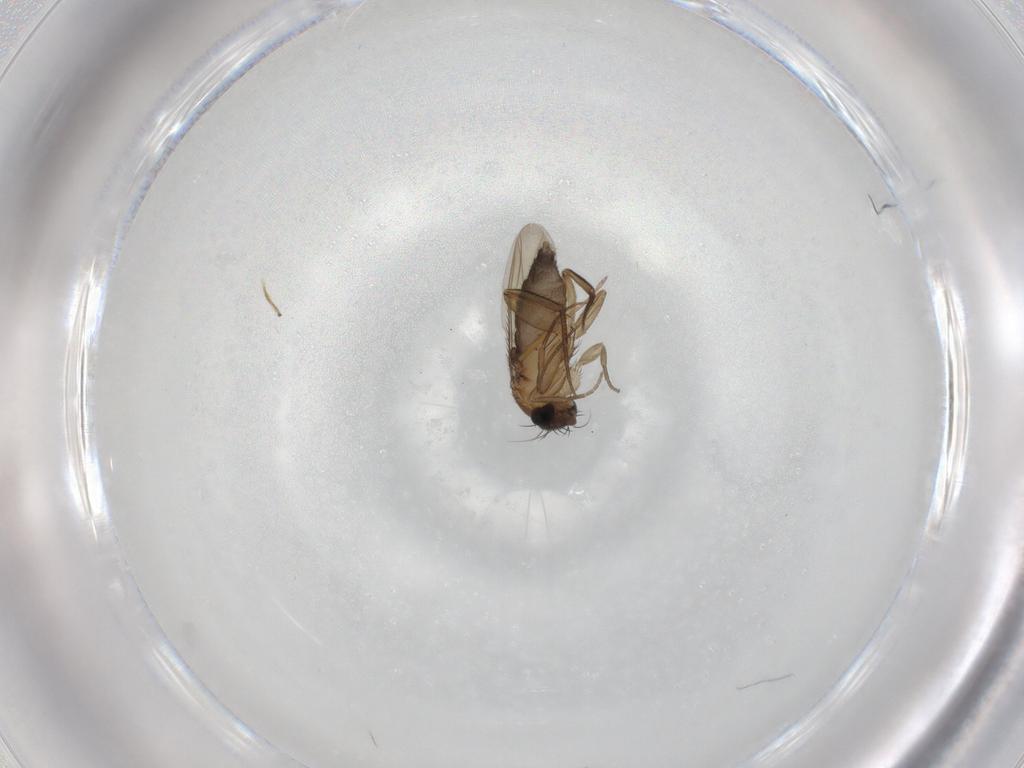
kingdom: Animalia
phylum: Arthropoda
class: Insecta
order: Diptera
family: Phoridae
